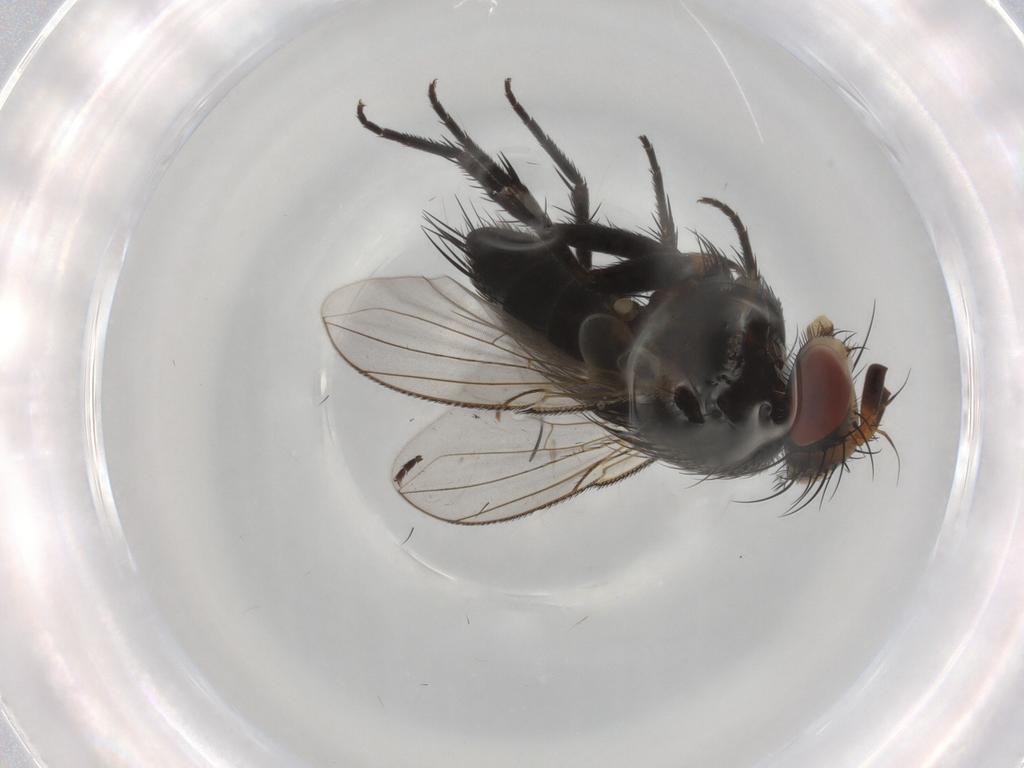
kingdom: Animalia
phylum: Arthropoda
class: Insecta
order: Diptera
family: Tachinidae
